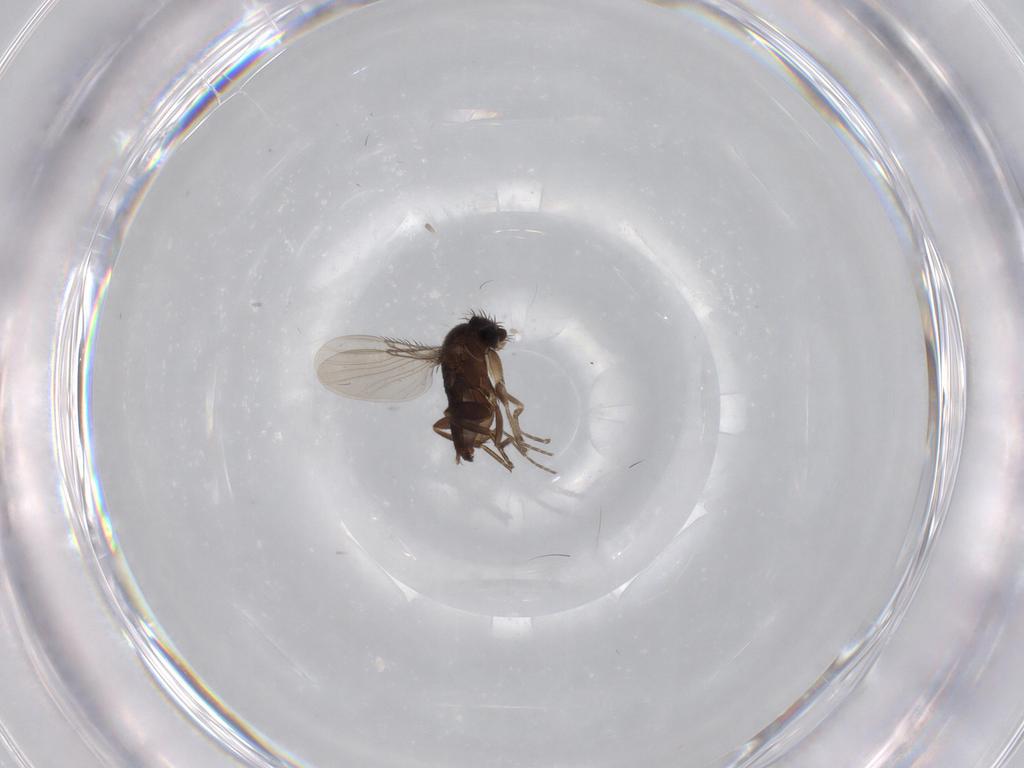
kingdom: Animalia
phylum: Arthropoda
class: Insecta
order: Diptera
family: Phoridae
